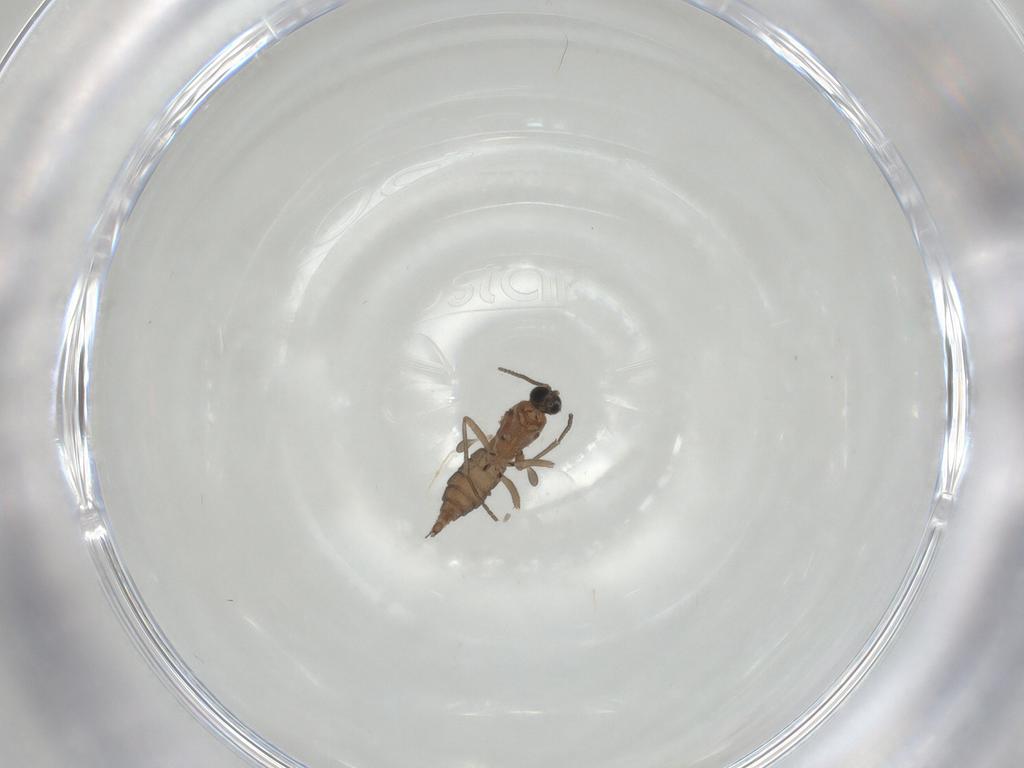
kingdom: Animalia
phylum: Arthropoda
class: Insecta
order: Diptera
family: Sciaridae
